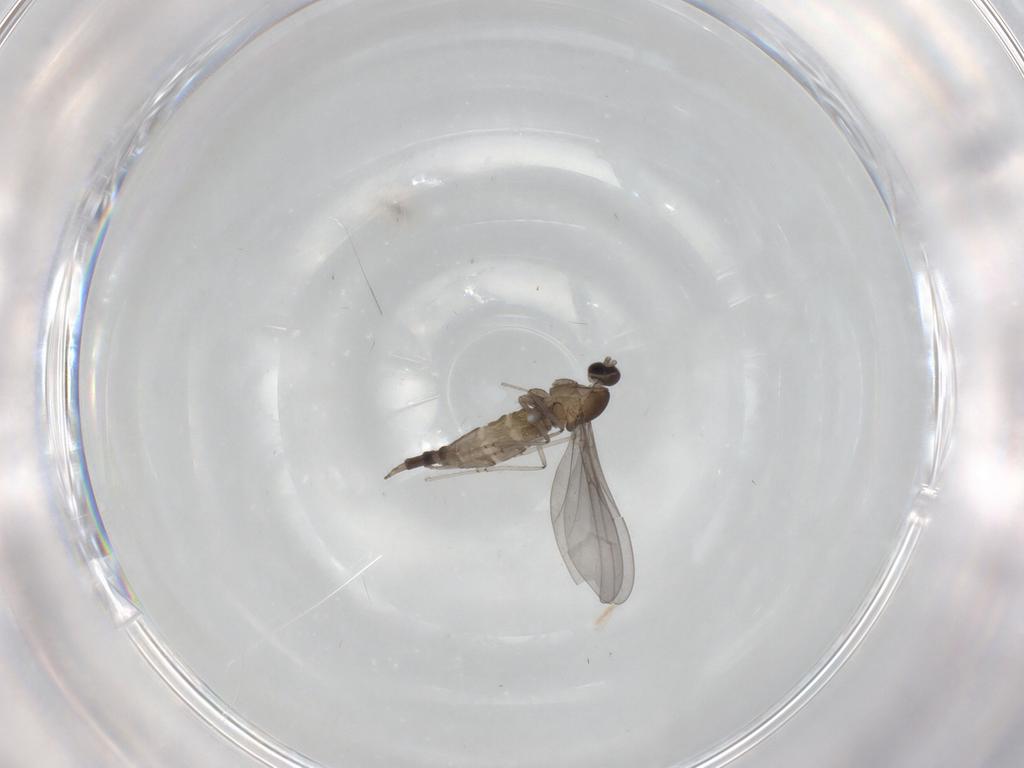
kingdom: Animalia
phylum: Arthropoda
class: Insecta
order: Diptera
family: Cecidomyiidae
